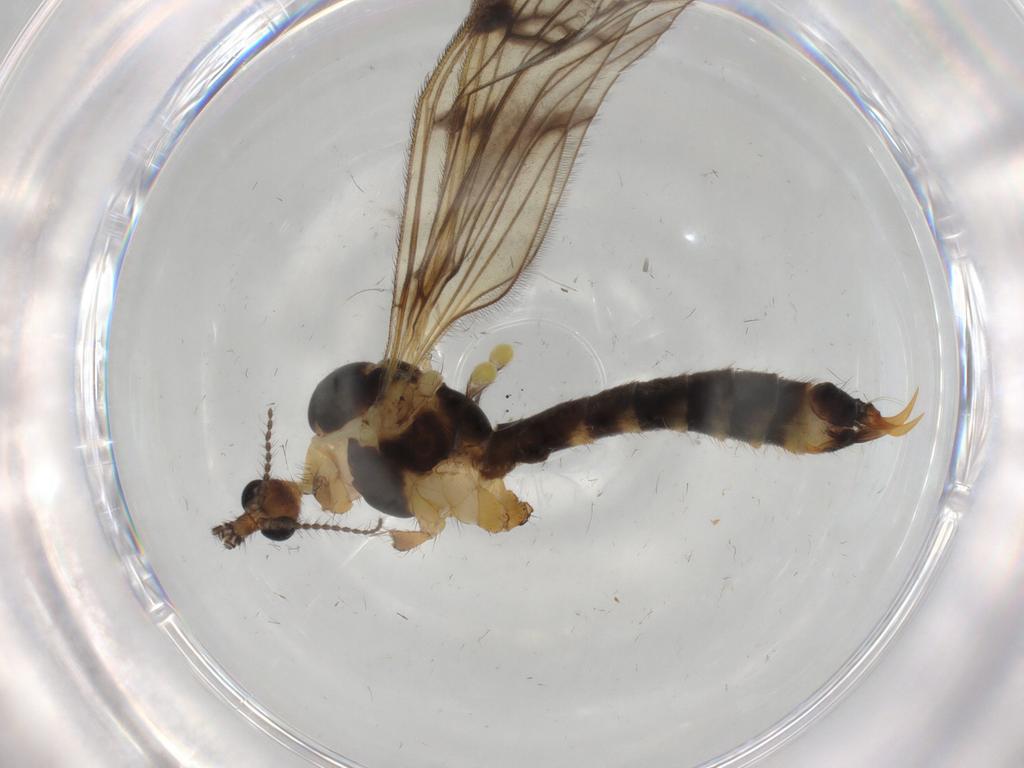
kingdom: Animalia
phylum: Arthropoda
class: Insecta
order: Diptera
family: Limoniidae
